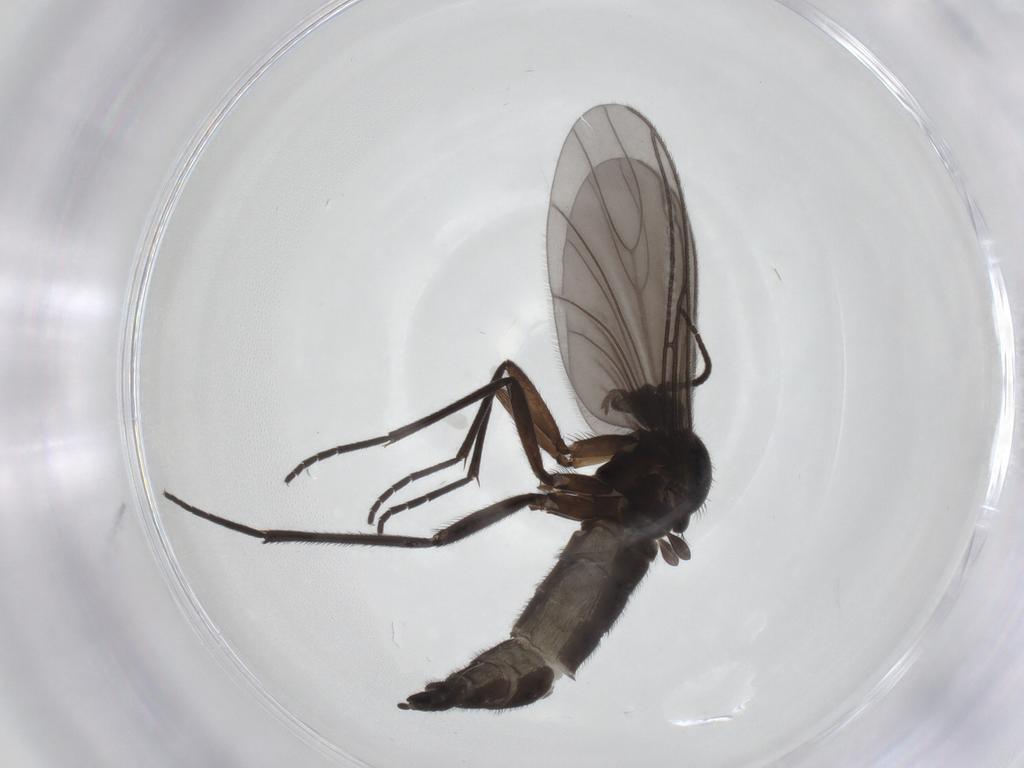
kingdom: Animalia
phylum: Arthropoda
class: Insecta
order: Diptera
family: Sciaridae
